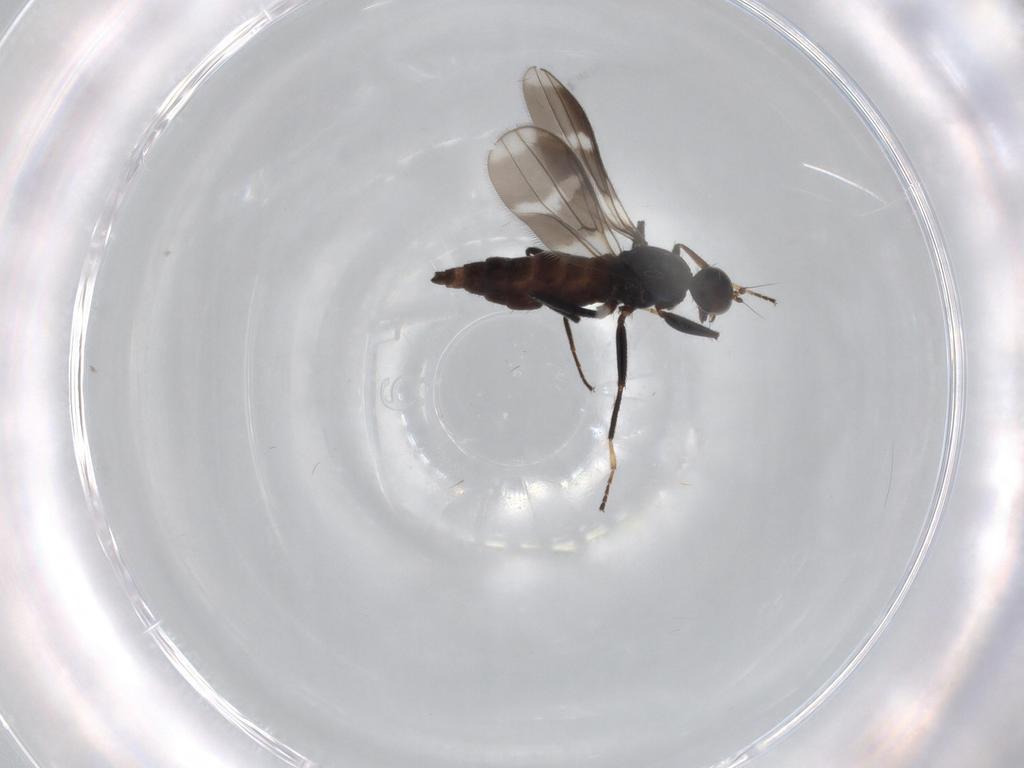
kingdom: Animalia
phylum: Arthropoda
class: Insecta
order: Diptera
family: Hybotidae
